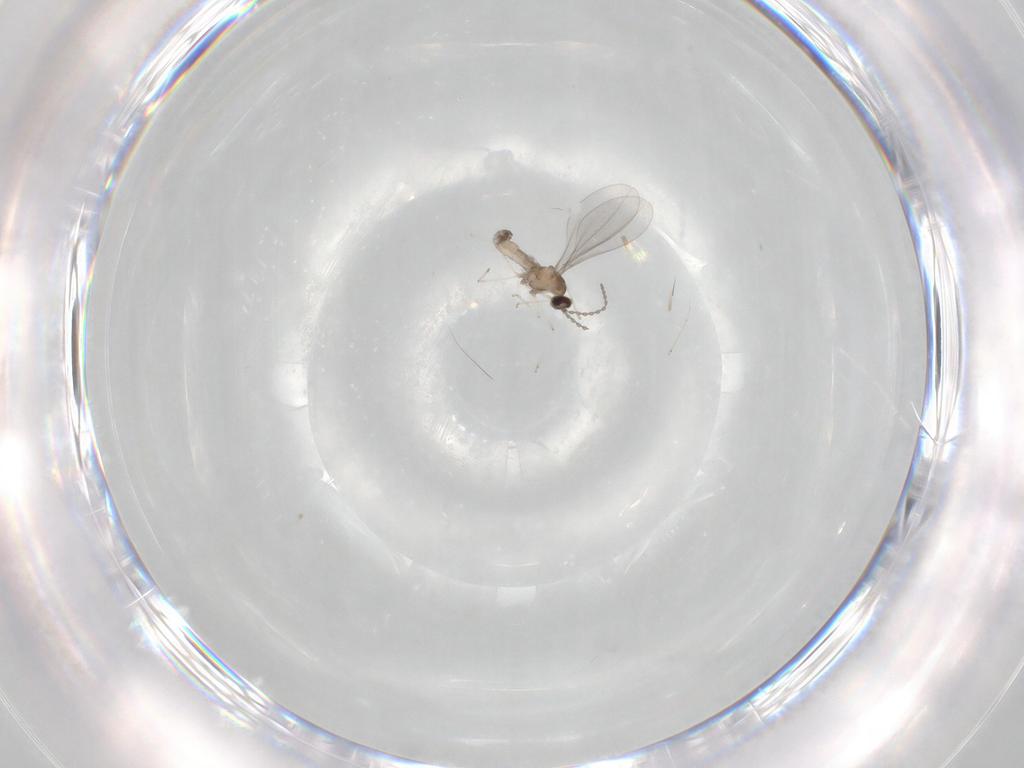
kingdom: Animalia
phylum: Arthropoda
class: Insecta
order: Diptera
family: Cecidomyiidae
